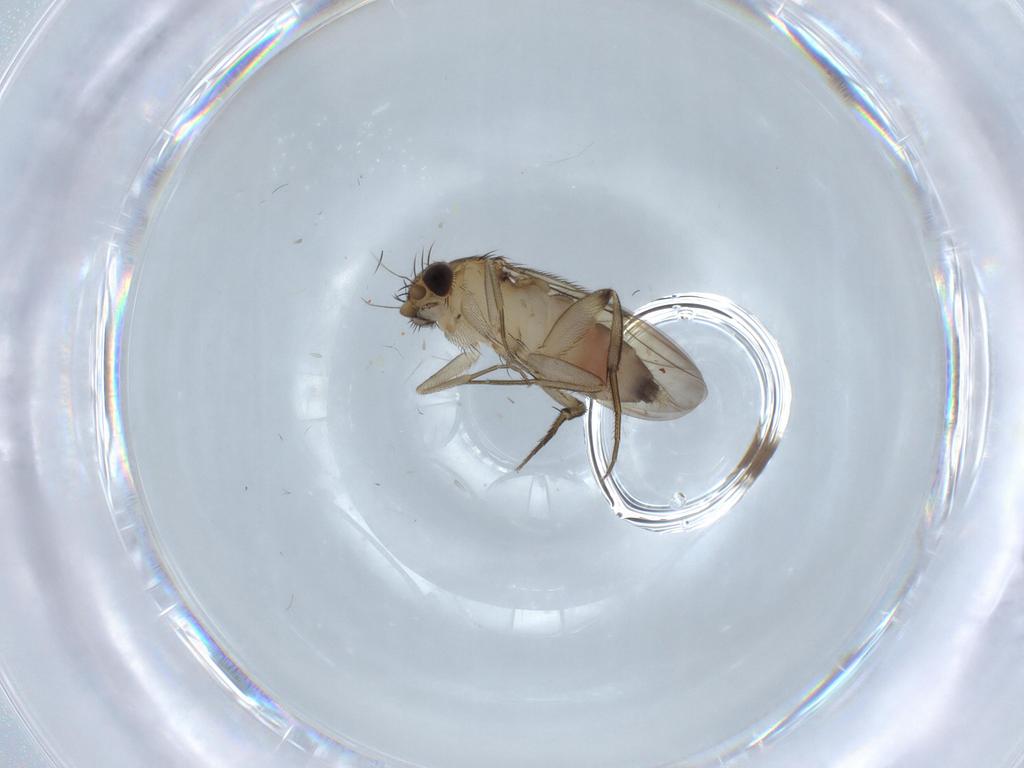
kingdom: Animalia
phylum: Arthropoda
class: Insecta
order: Diptera
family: Phoridae
